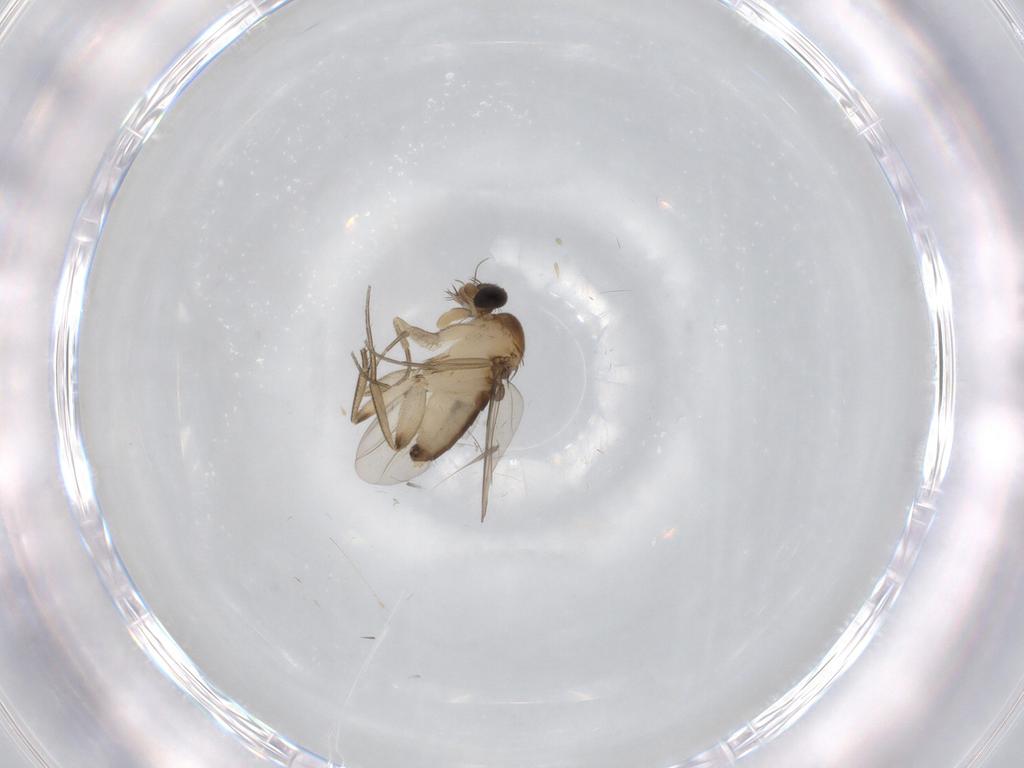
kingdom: Animalia
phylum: Arthropoda
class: Insecta
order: Diptera
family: Phoridae
